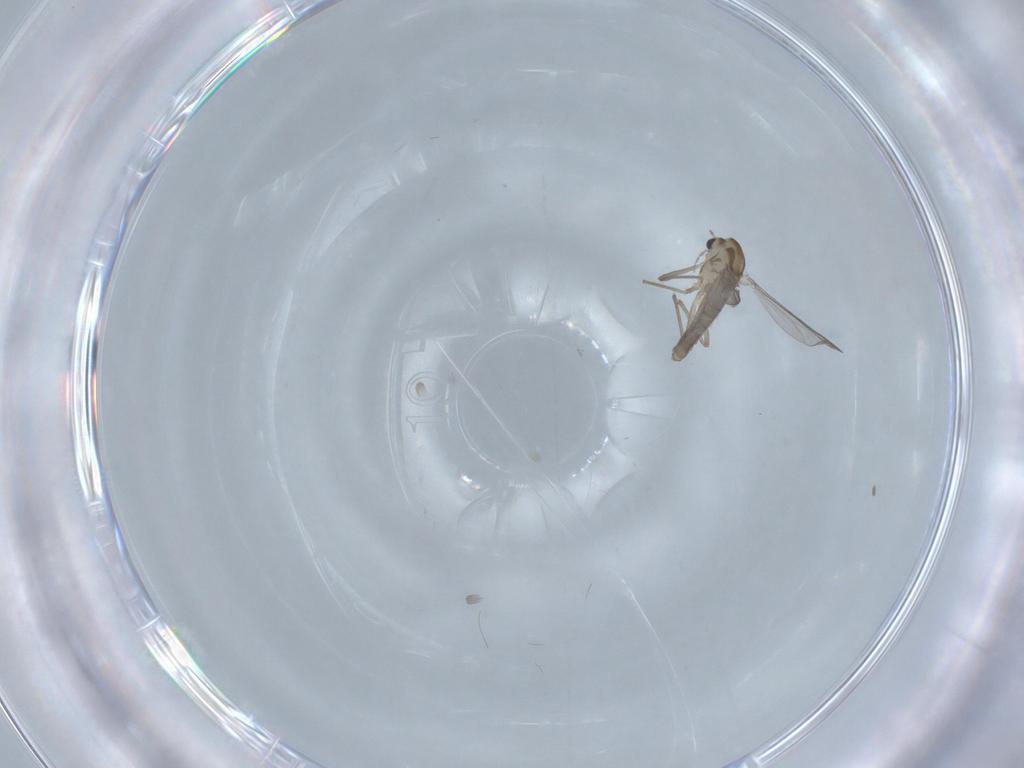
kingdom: Animalia
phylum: Arthropoda
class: Insecta
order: Diptera
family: Chironomidae
